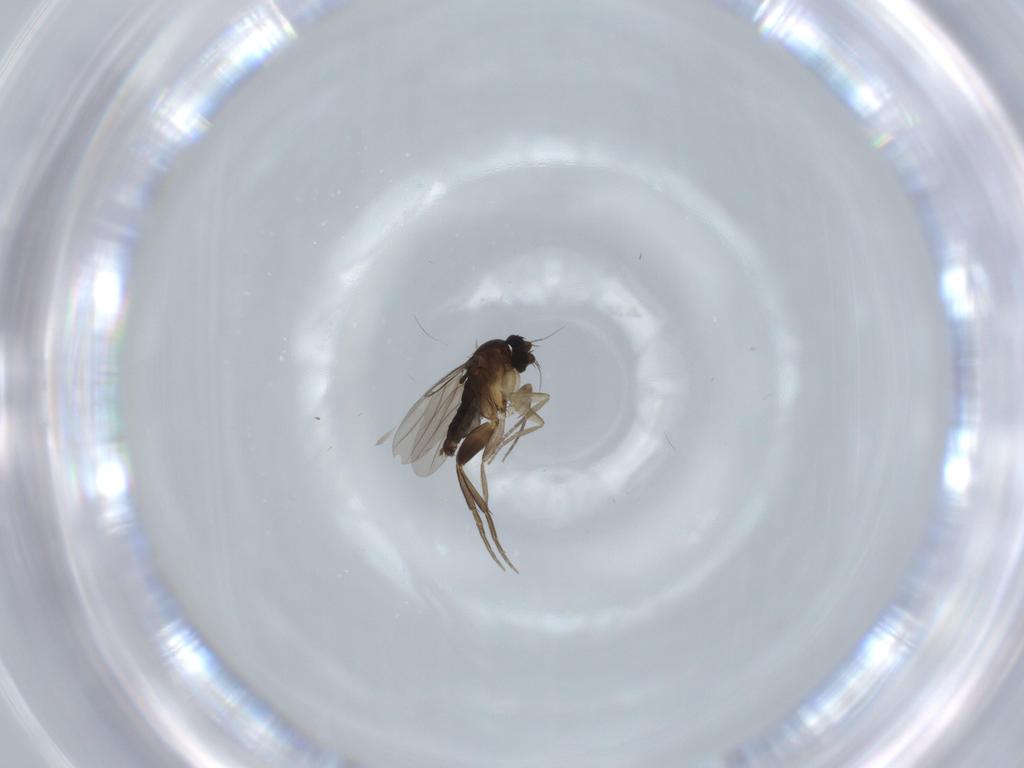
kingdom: Animalia
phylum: Arthropoda
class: Insecta
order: Diptera
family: Phoridae
